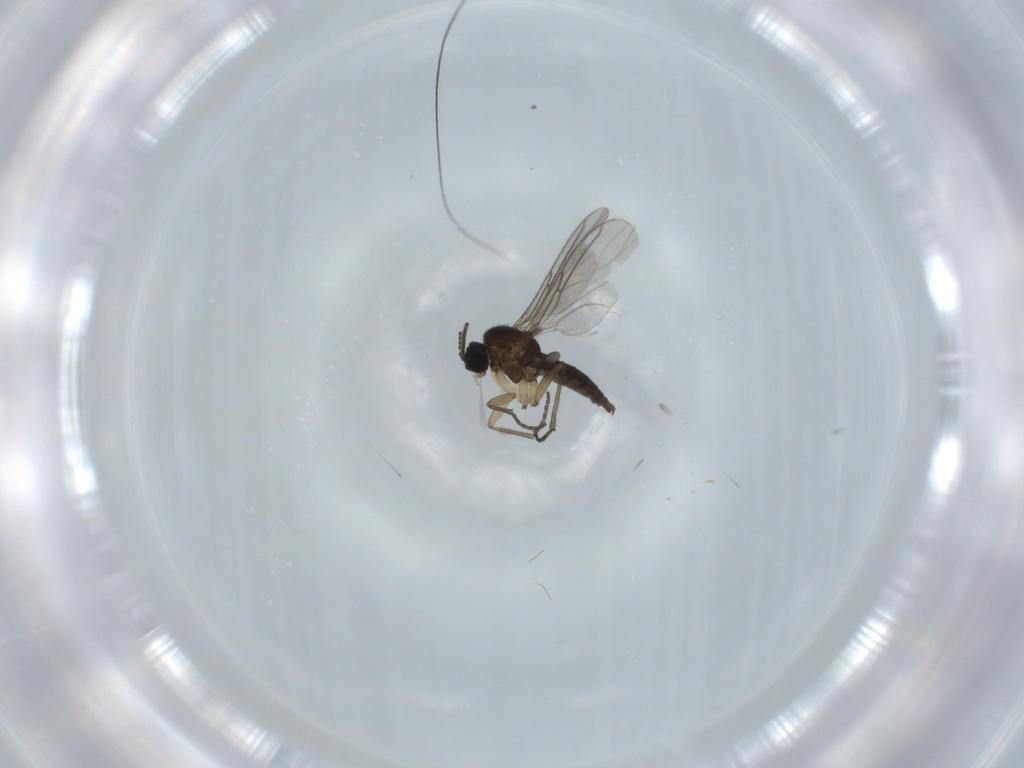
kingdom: Animalia
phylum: Arthropoda
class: Insecta
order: Diptera
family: Sciaridae
